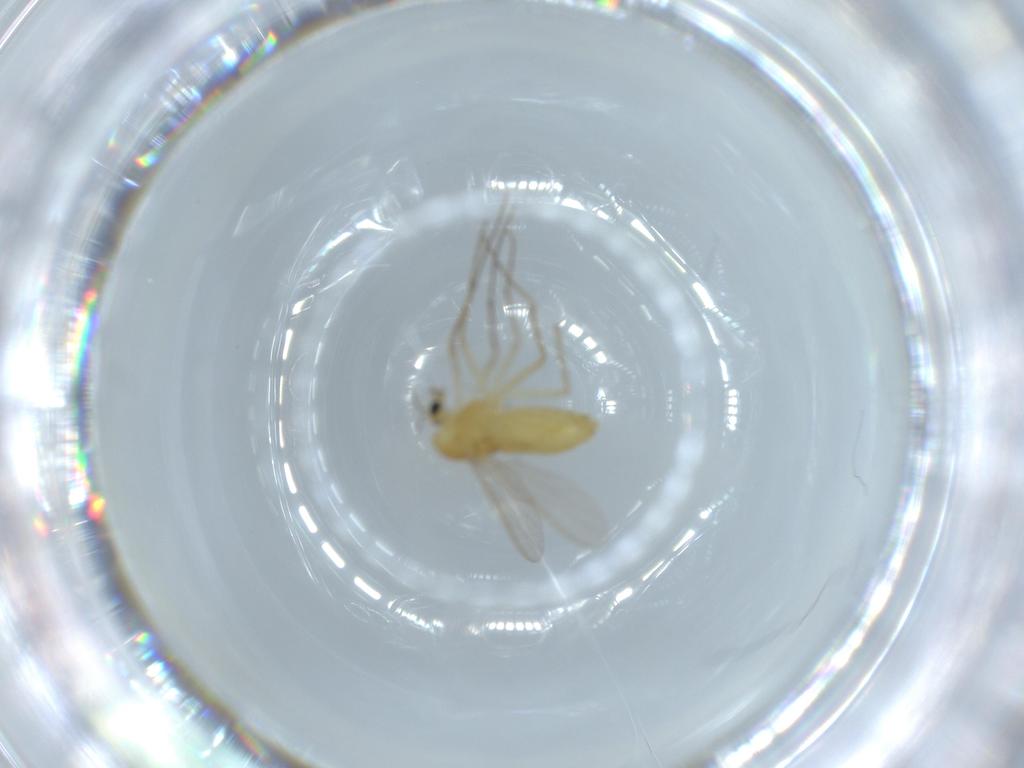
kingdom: Animalia
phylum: Arthropoda
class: Insecta
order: Diptera
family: Chironomidae
